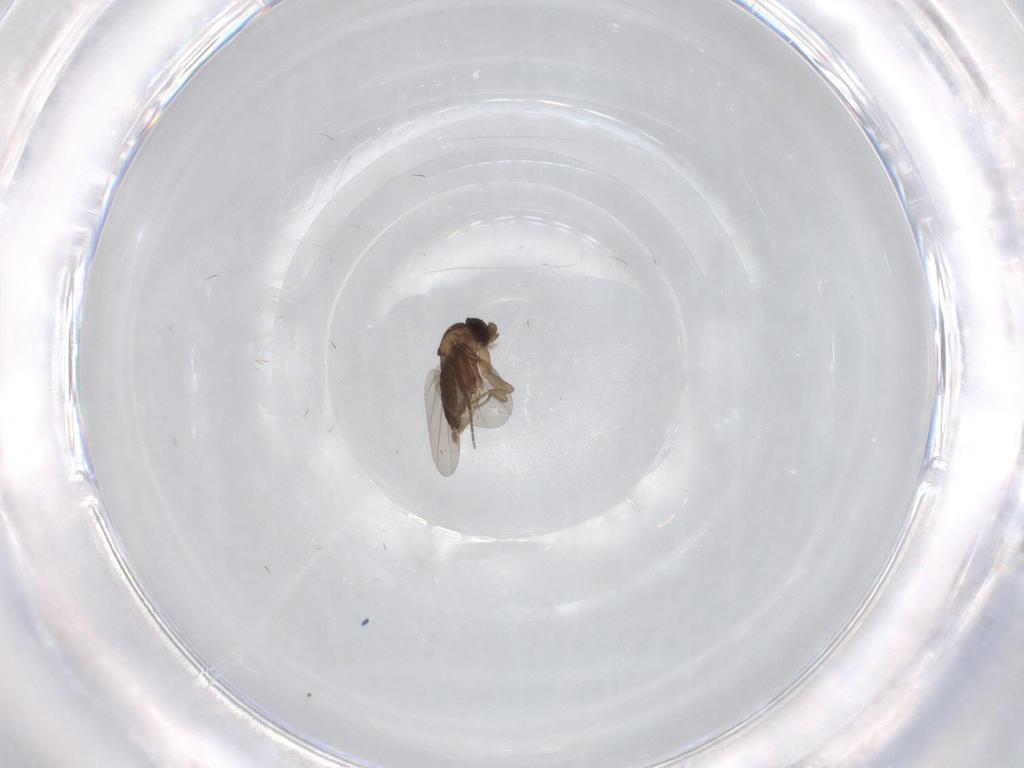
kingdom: Animalia
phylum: Arthropoda
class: Insecta
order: Diptera
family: Phoridae
